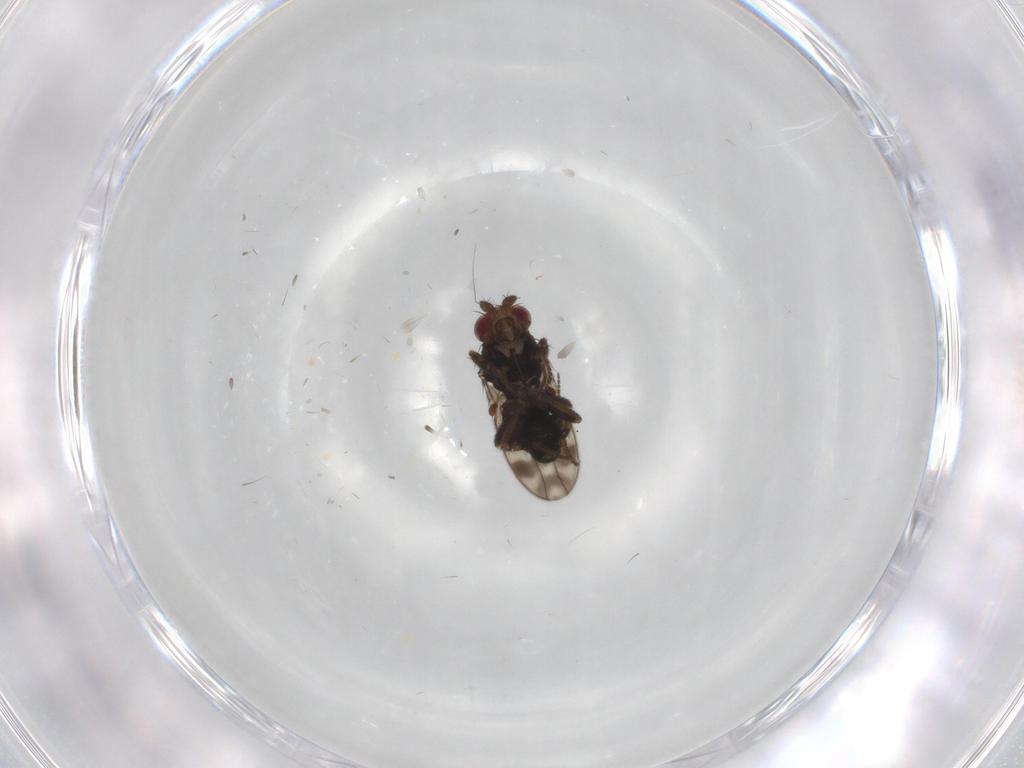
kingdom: Animalia
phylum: Arthropoda
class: Insecta
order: Diptera
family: Sphaeroceridae
